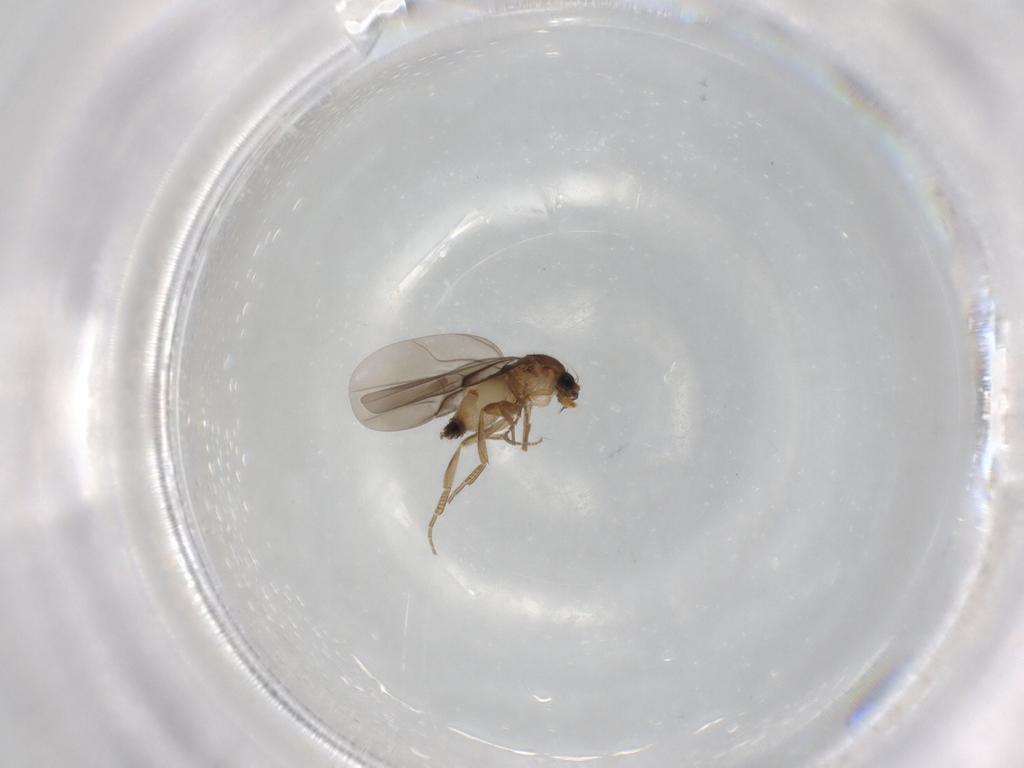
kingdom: Animalia
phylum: Arthropoda
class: Insecta
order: Diptera
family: Phoridae
